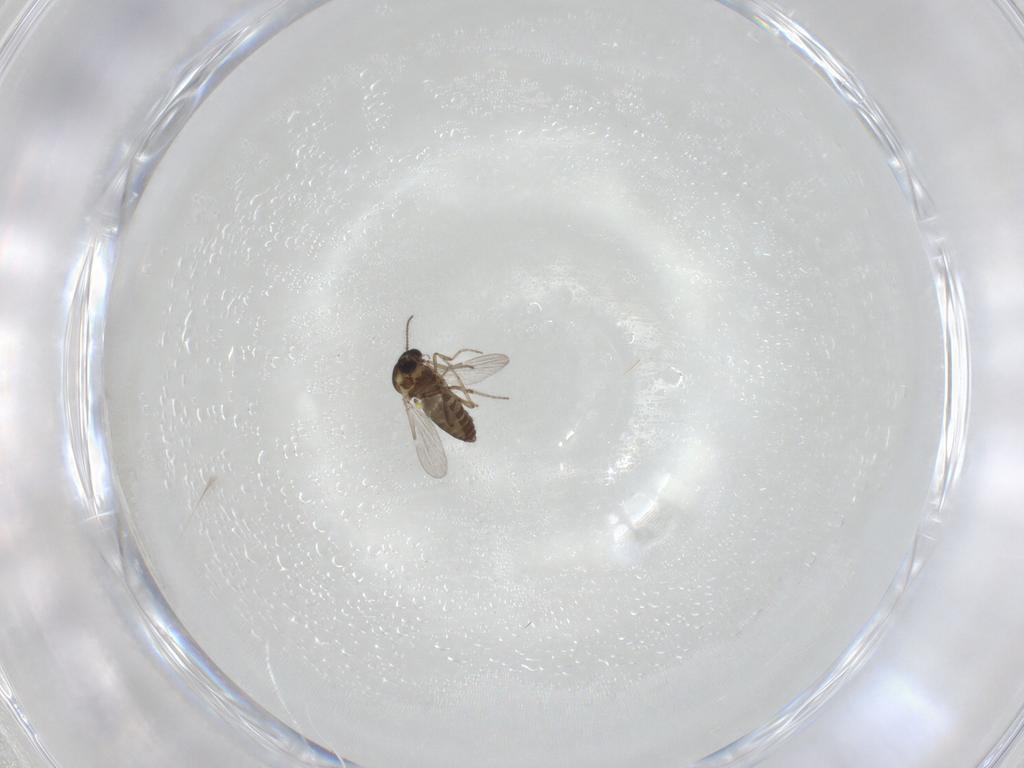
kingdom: Animalia
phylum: Arthropoda
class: Insecta
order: Diptera
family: Ceratopogonidae
